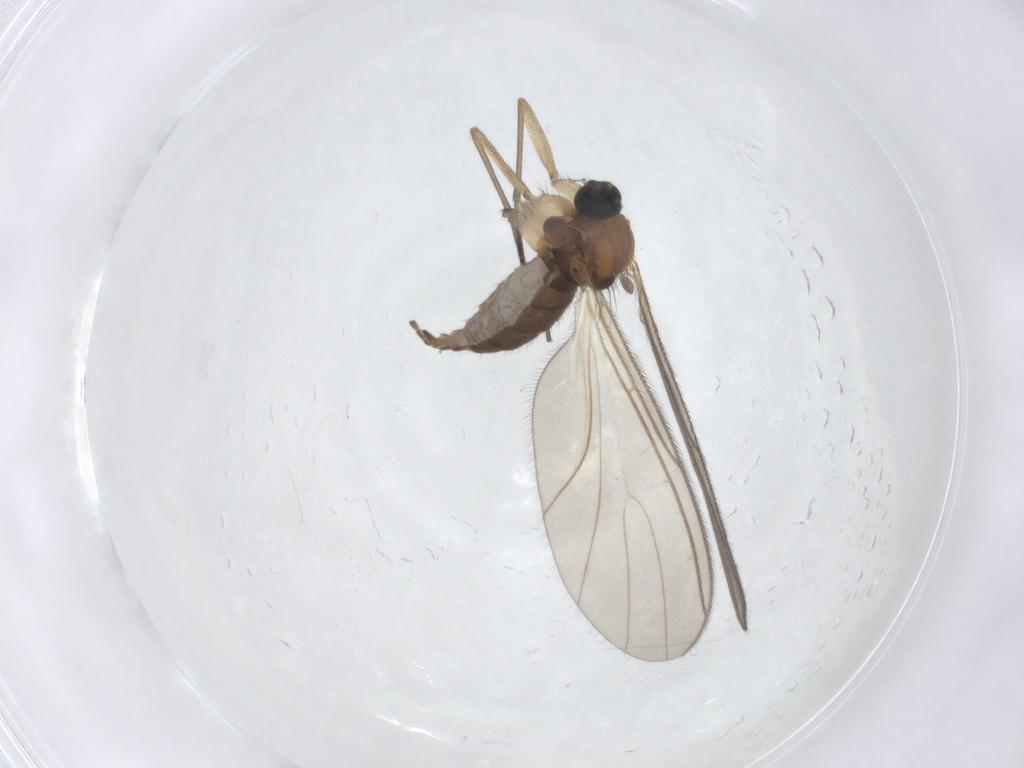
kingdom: Animalia
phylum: Arthropoda
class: Insecta
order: Diptera
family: Sciaridae
